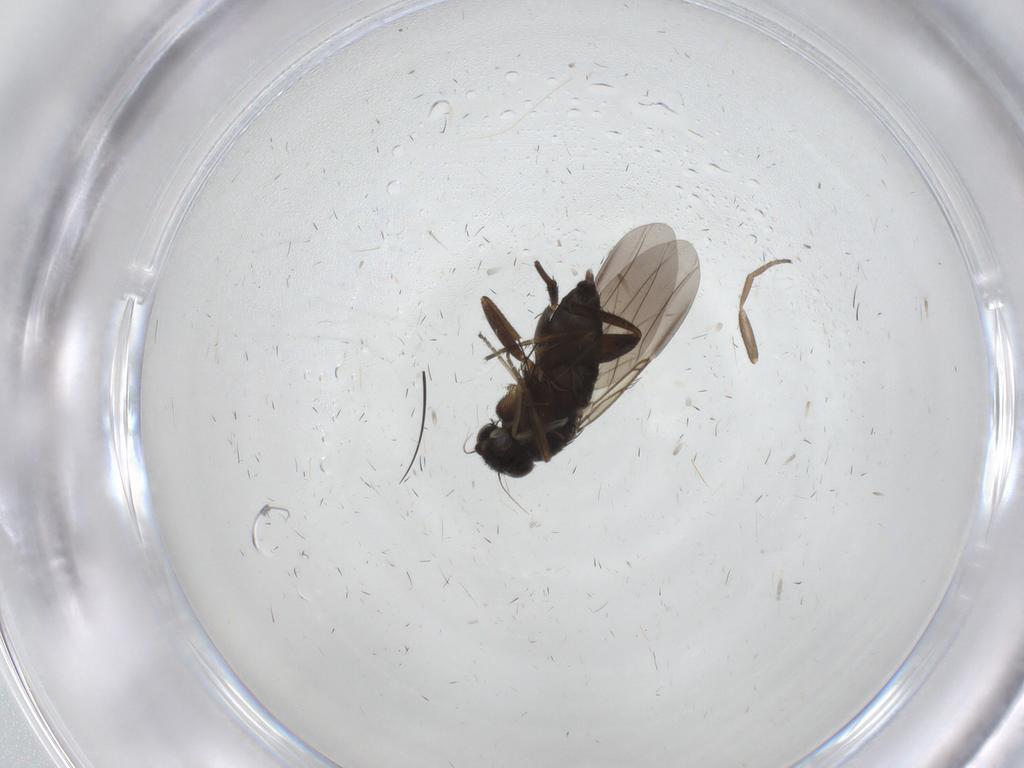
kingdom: Animalia
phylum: Arthropoda
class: Insecta
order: Diptera
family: Phoridae
